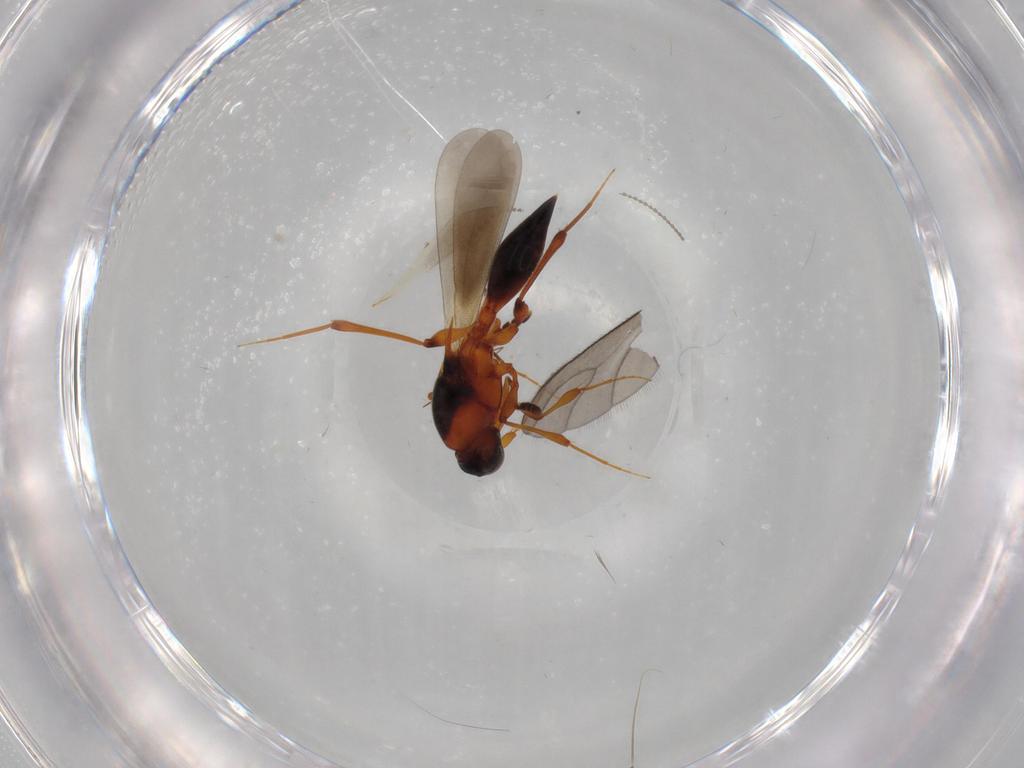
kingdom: Animalia
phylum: Arthropoda
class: Insecta
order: Hymenoptera
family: Platygastridae
